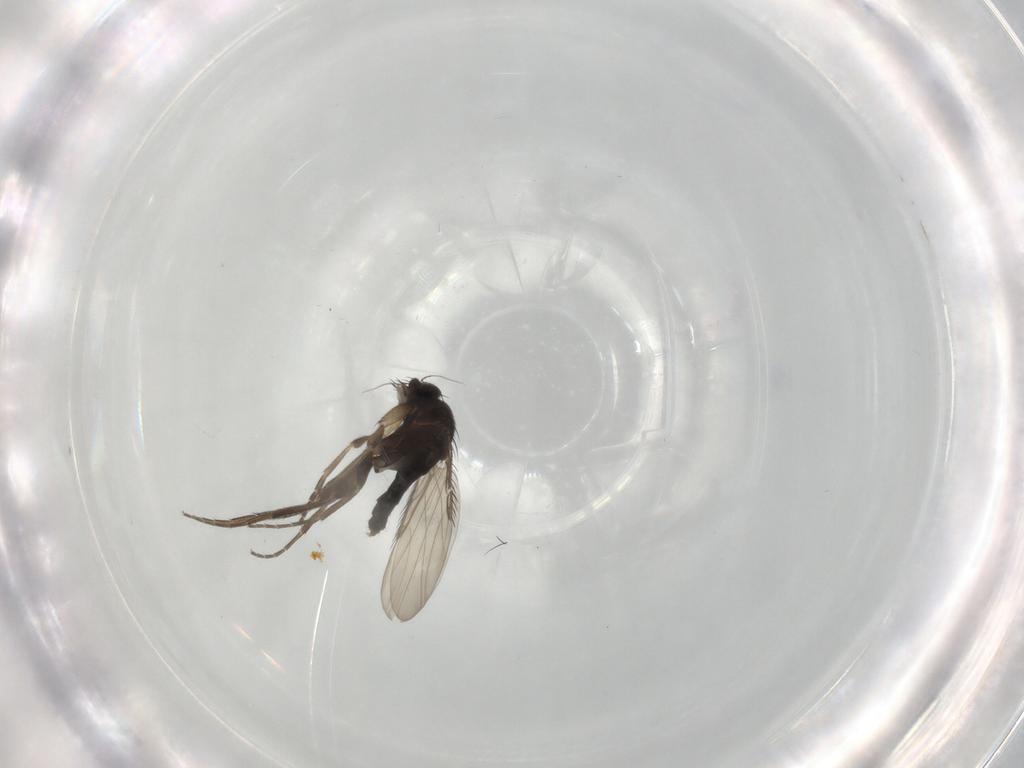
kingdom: Animalia
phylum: Arthropoda
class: Insecta
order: Diptera
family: Phoridae
